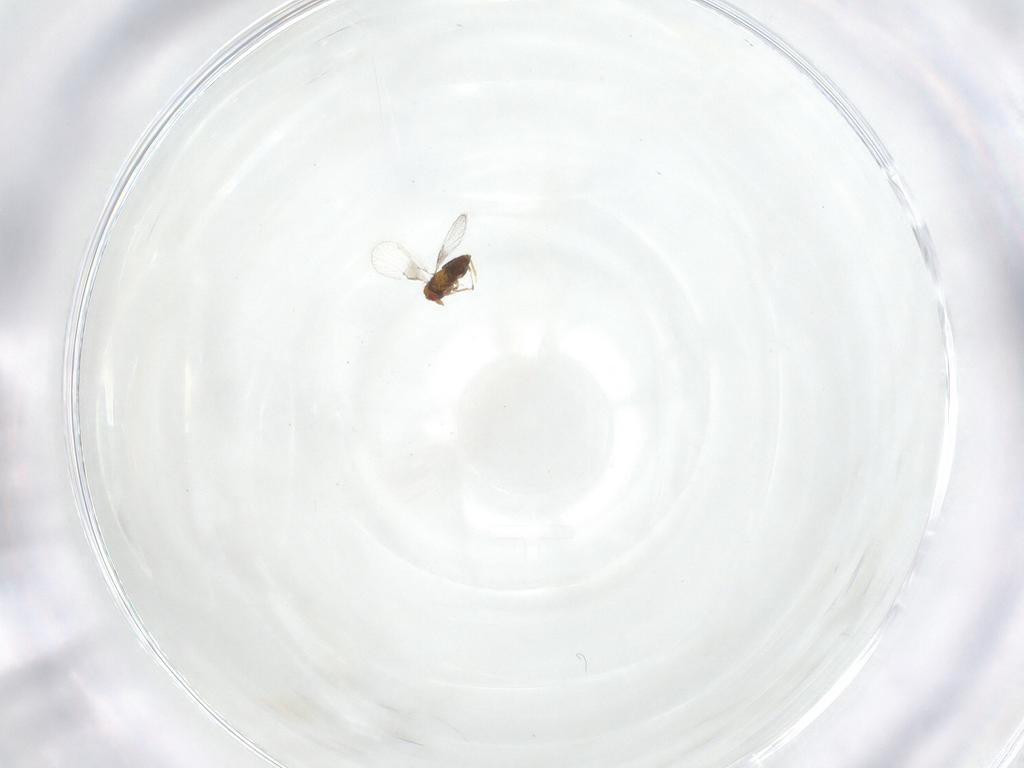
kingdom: Animalia
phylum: Arthropoda
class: Insecta
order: Hymenoptera
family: Trichogrammatidae
